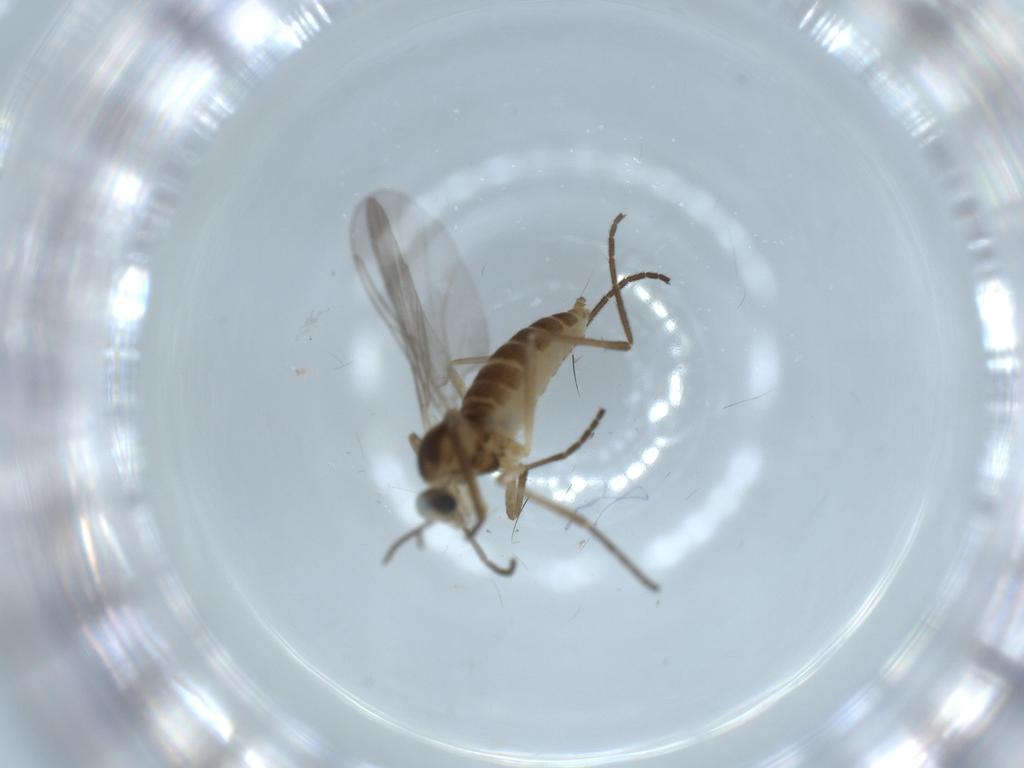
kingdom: Animalia
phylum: Arthropoda
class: Insecta
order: Diptera
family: Cecidomyiidae
